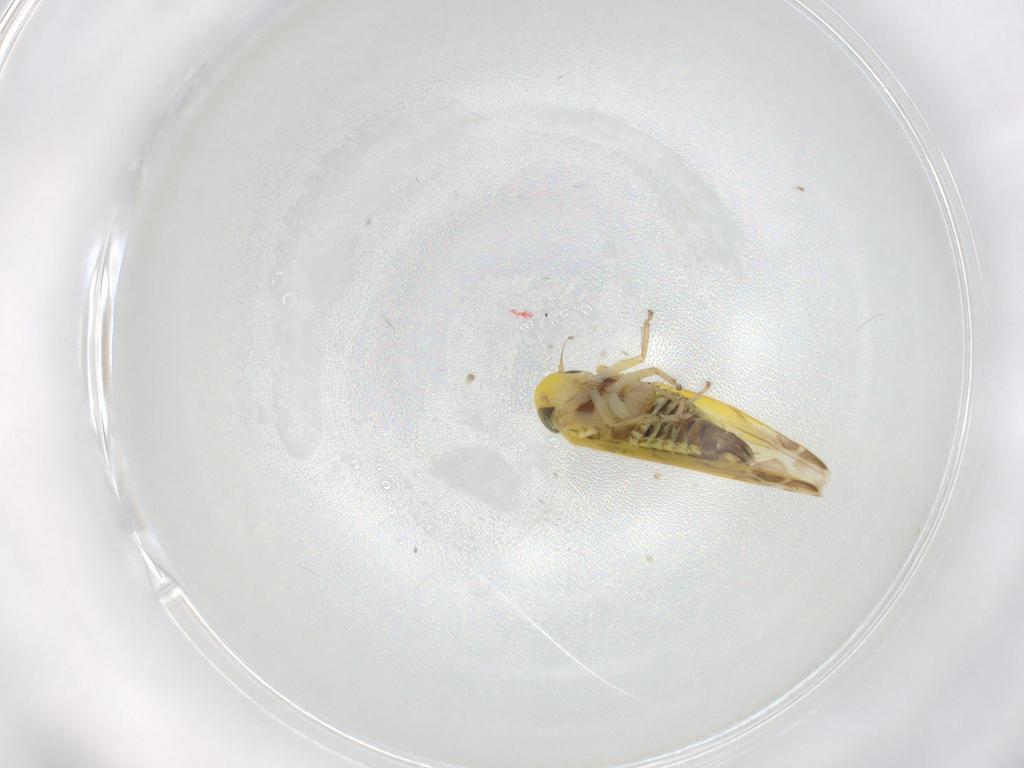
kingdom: Animalia
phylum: Arthropoda
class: Insecta
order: Hemiptera
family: Cicadellidae
